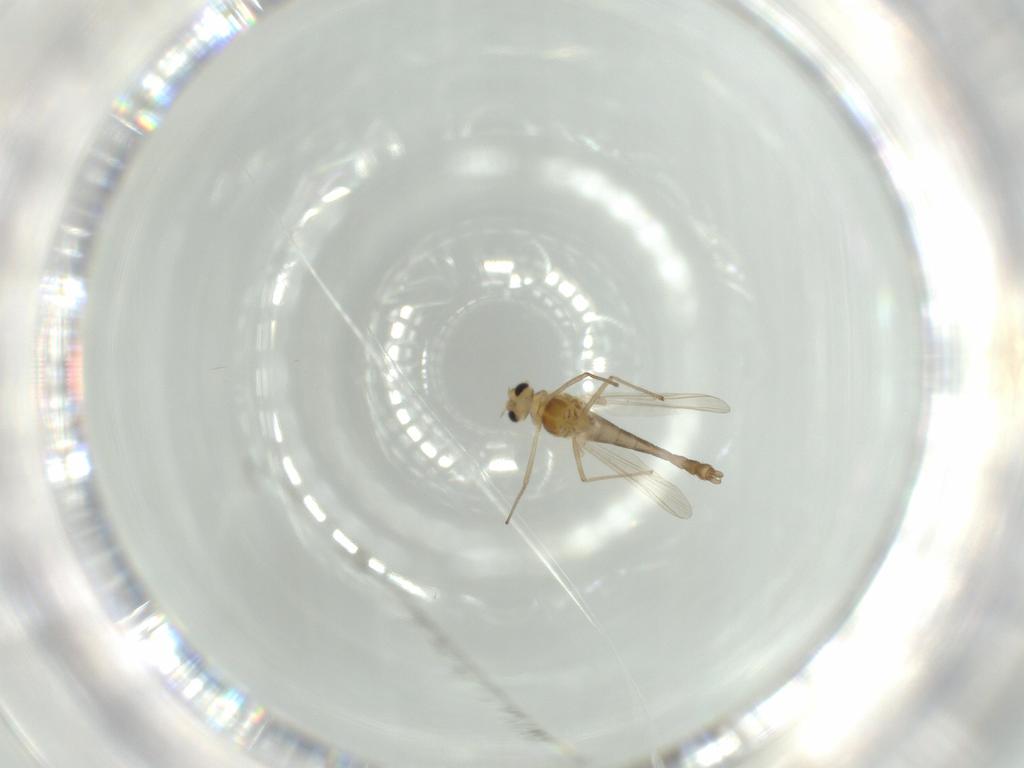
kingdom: Animalia
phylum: Arthropoda
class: Insecta
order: Diptera
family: Chironomidae
